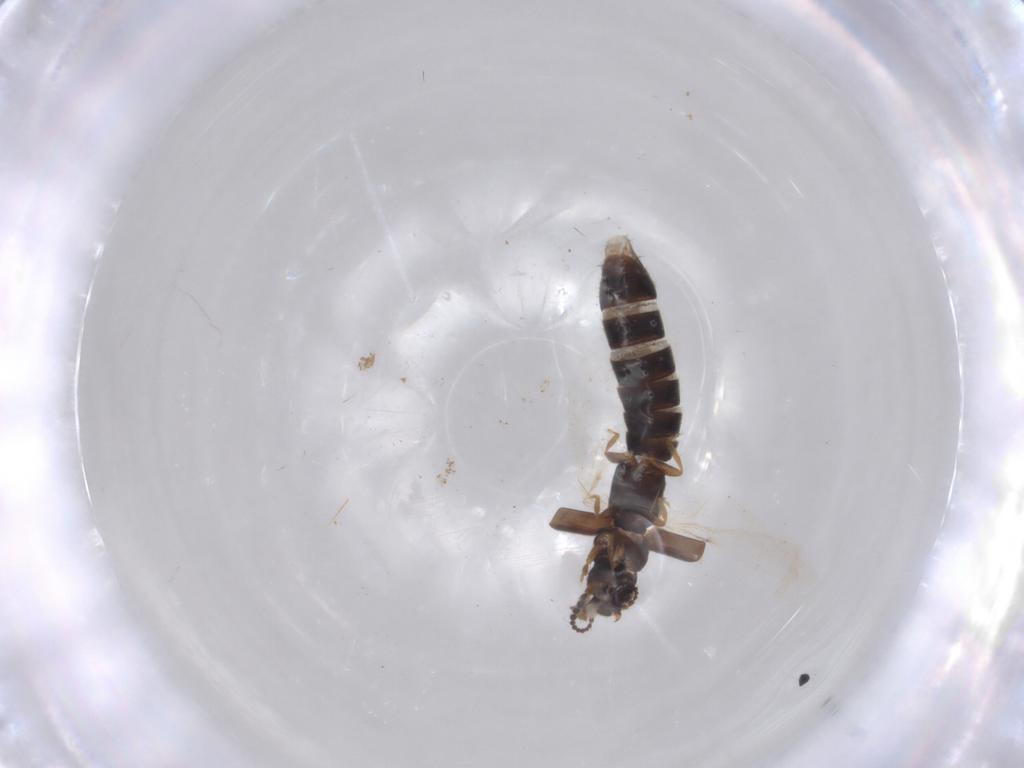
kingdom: Animalia
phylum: Arthropoda
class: Insecta
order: Coleoptera
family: Staphylinidae
